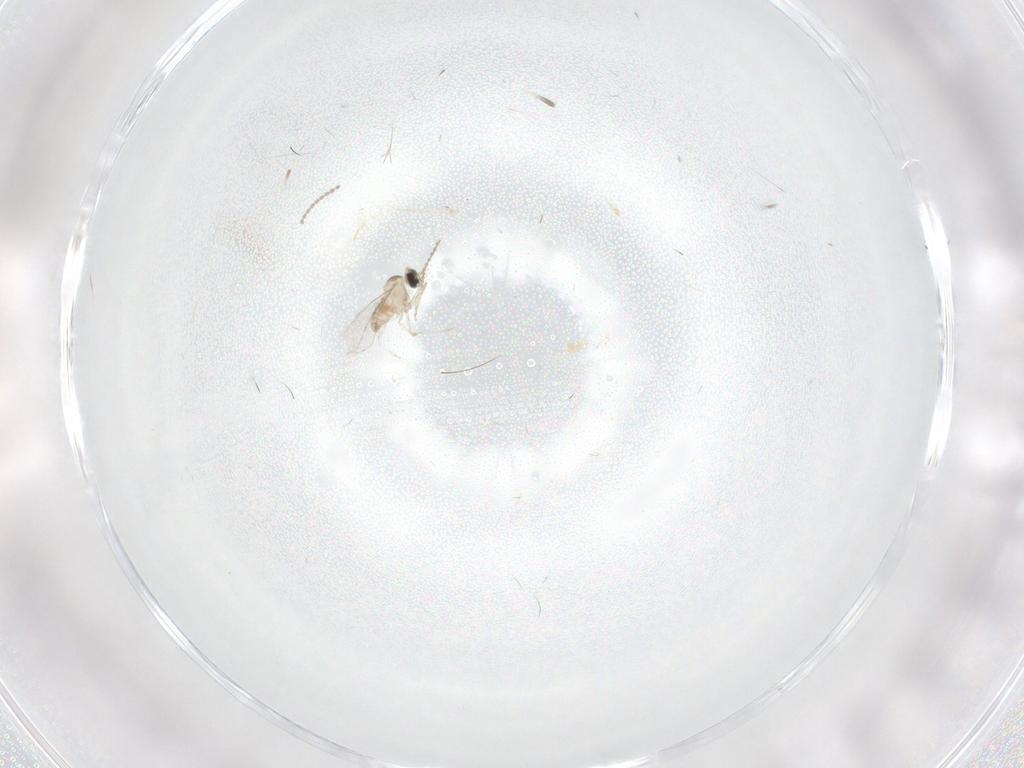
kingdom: Animalia
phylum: Arthropoda
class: Insecta
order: Diptera
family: Cecidomyiidae
